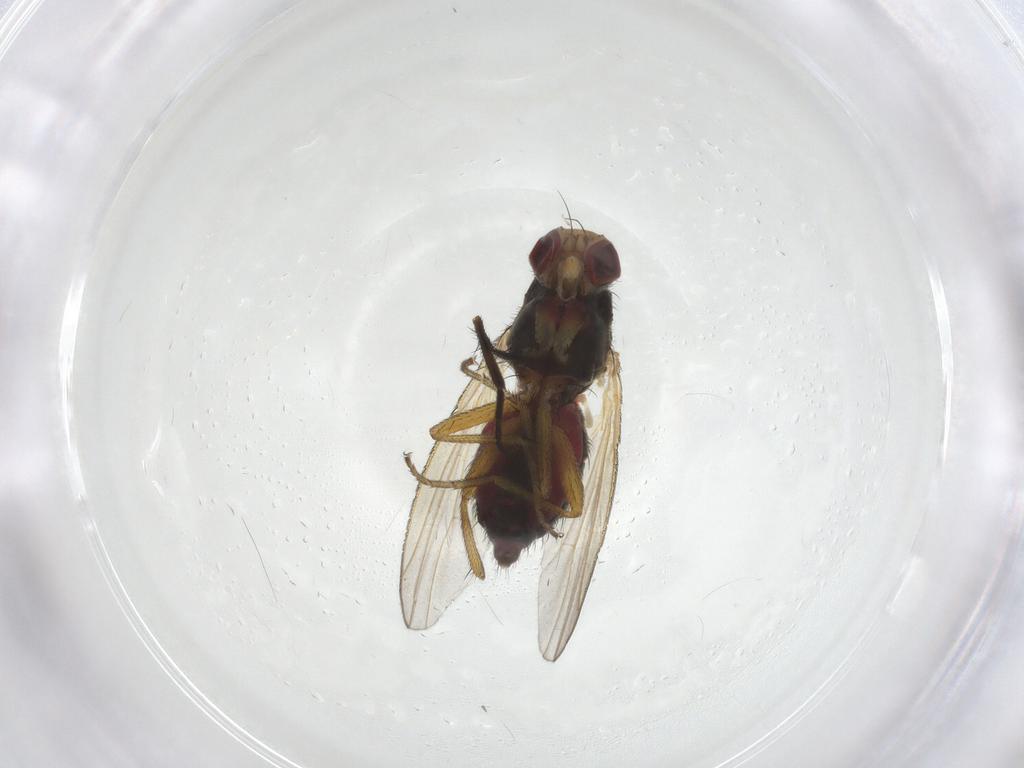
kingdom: Animalia
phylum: Arthropoda
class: Insecta
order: Diptera
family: Heleomyzidae
